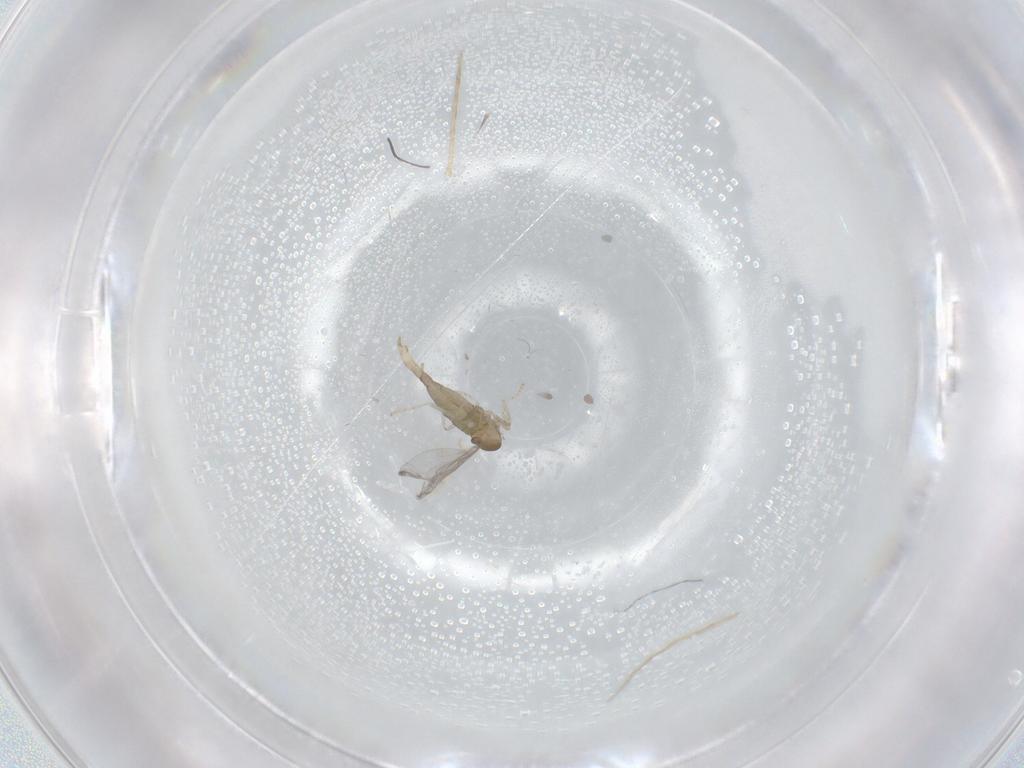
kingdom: Animalia
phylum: Arthropoda
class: Insecta
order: Diptera
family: Cecidomyiidae
